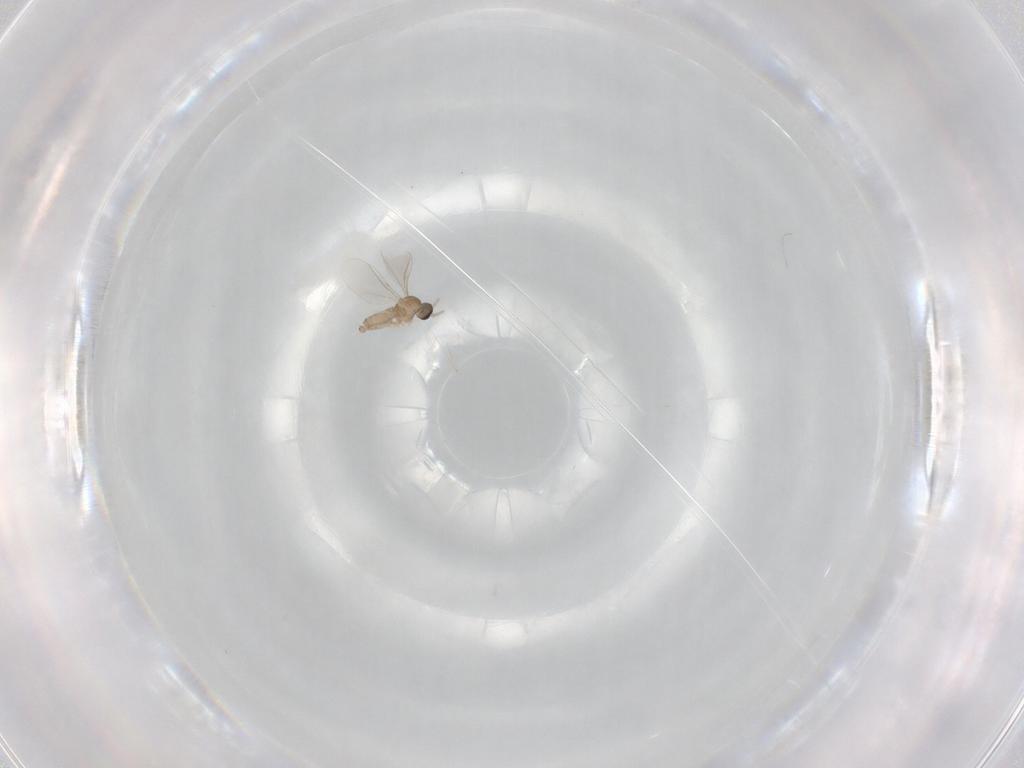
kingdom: Animalia
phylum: Arthropoda
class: Insecta
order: Diptera
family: Cecidomyiidae
